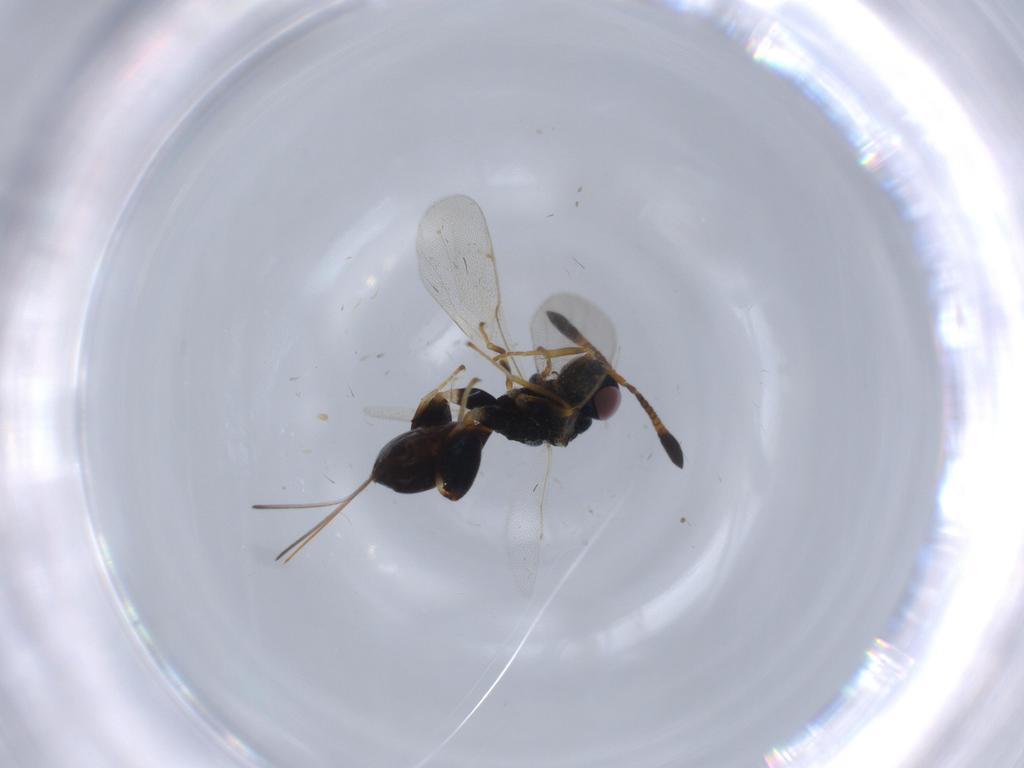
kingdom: Animalia
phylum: Arthropoda
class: Insecta
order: Hymenoptera
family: Torymidae
